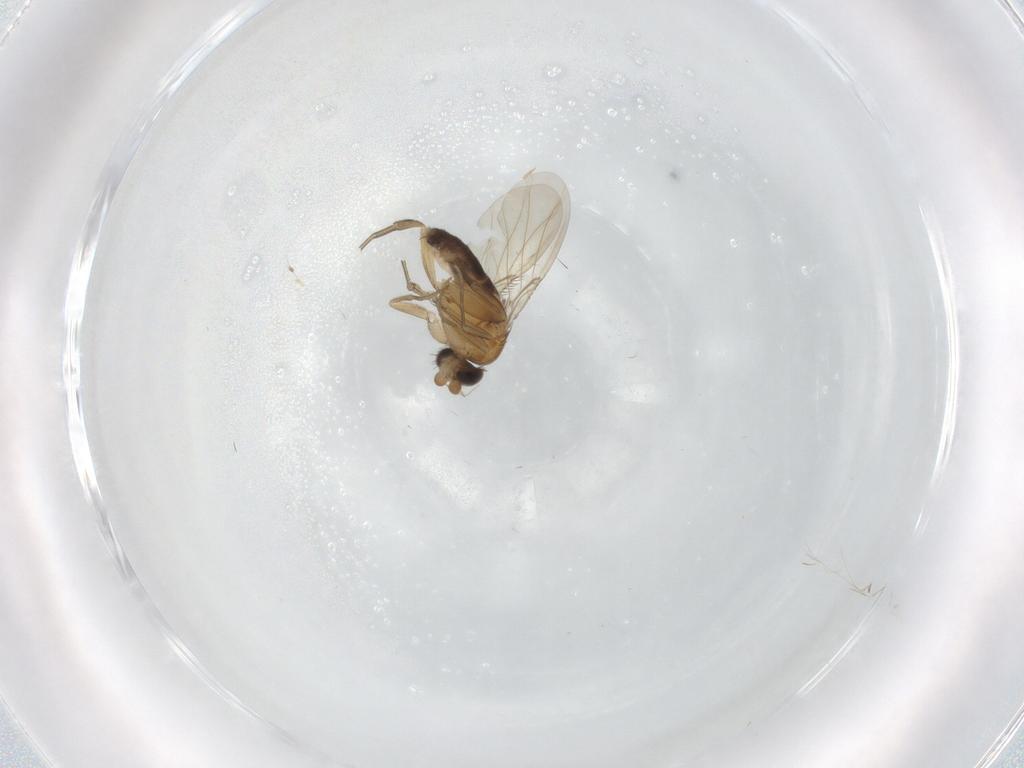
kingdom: Animalia
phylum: Arthropoda
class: Insecta
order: Diptera
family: Phoridae
